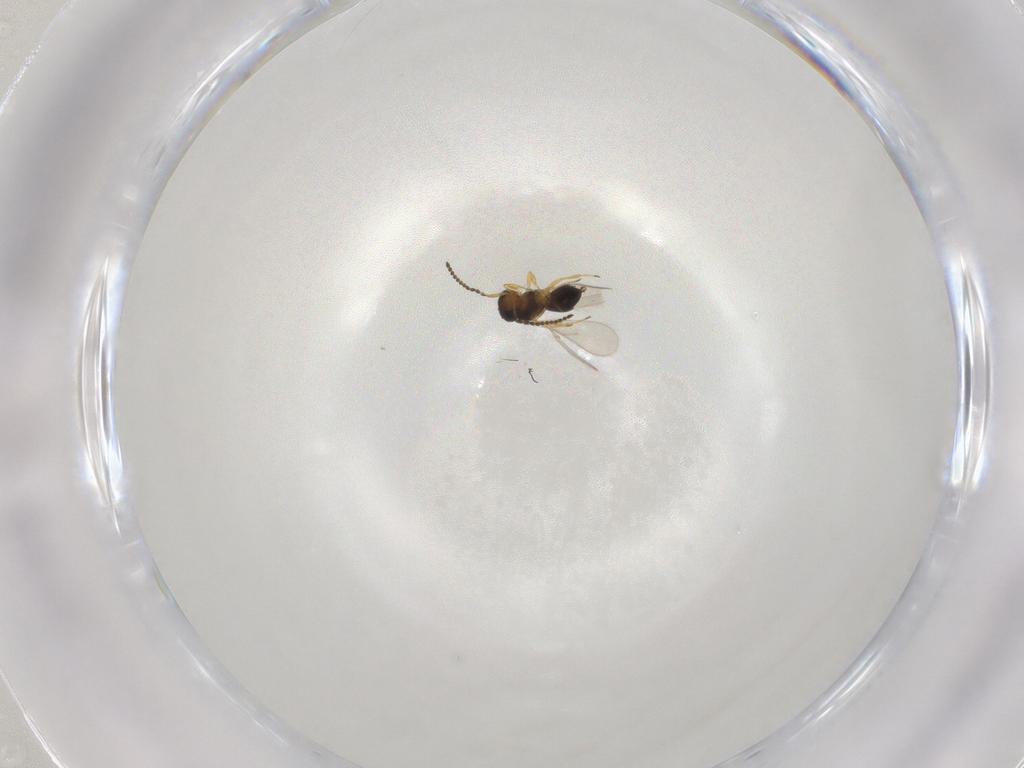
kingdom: Animalia
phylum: Arthropoda
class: Insecta
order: Hymenoptera
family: Scelionidae
